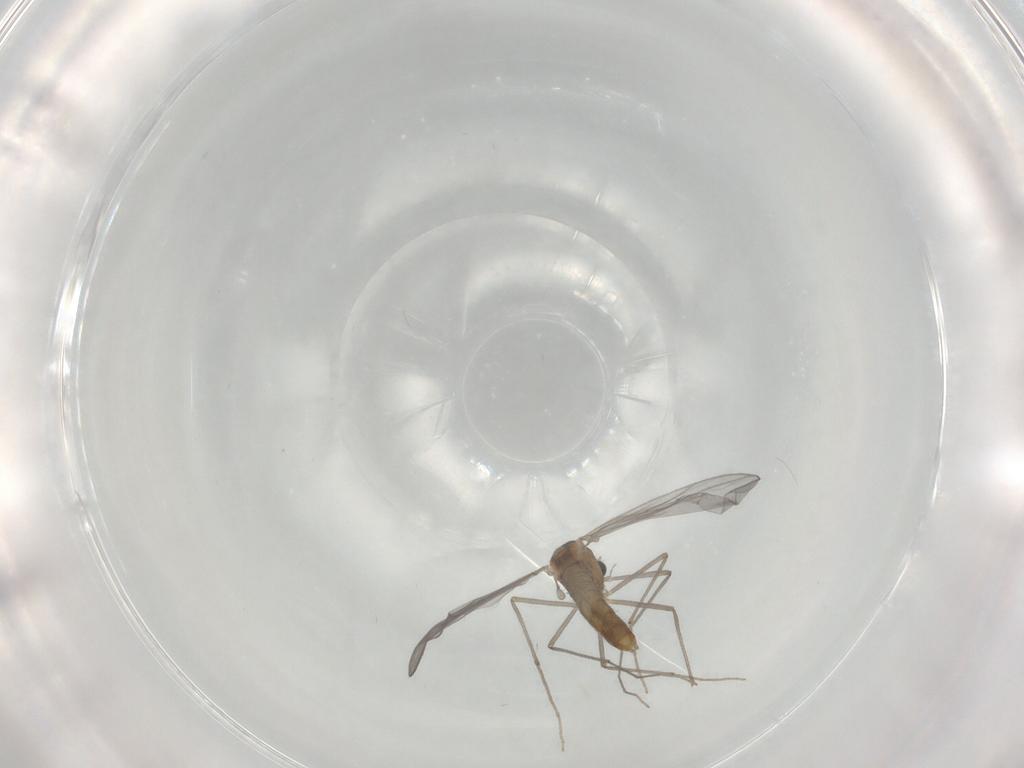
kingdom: Animalia
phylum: Arthropoda
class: Insecta
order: Diptera
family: Chironomidae
